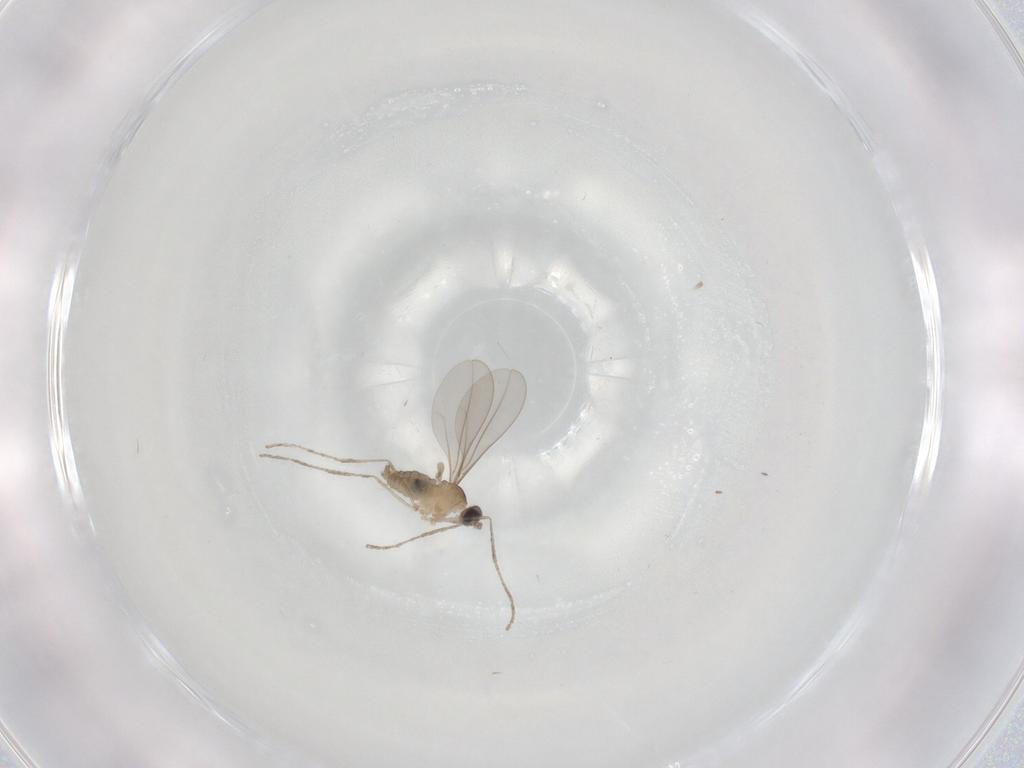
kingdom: Animalia
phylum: Arthropoda
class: Insecta
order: Diptera
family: Cecidomyiidae
